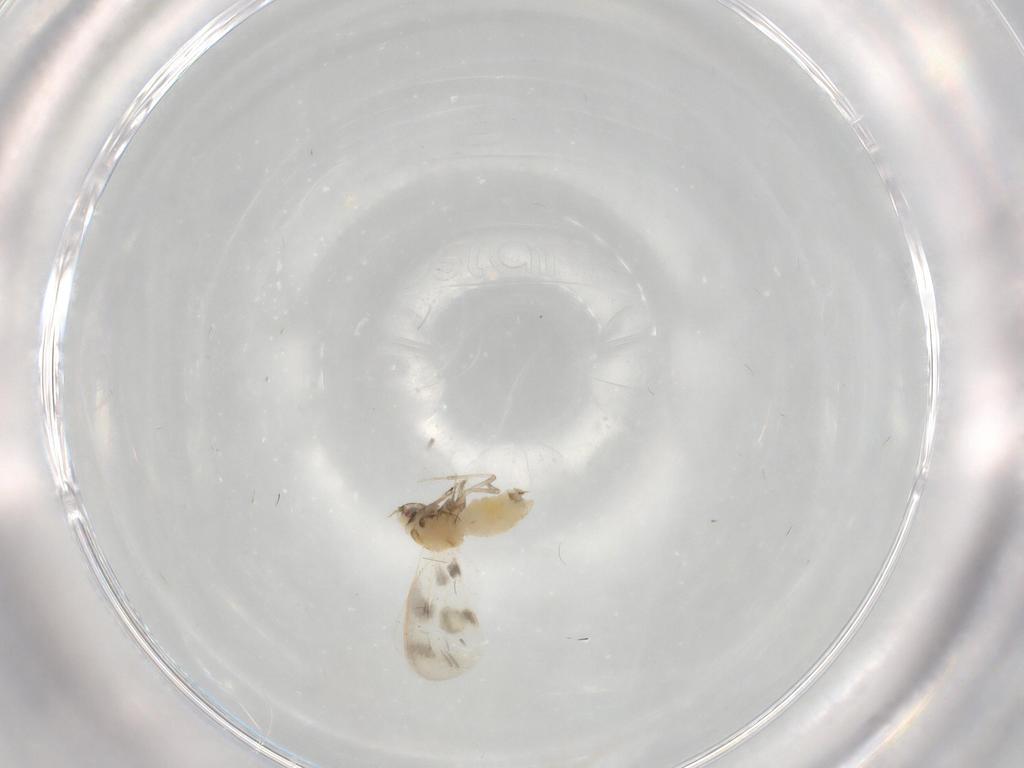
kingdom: Animalia
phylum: Arthropoda
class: Insecta
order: Hemiptera
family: Aleyrodidae
